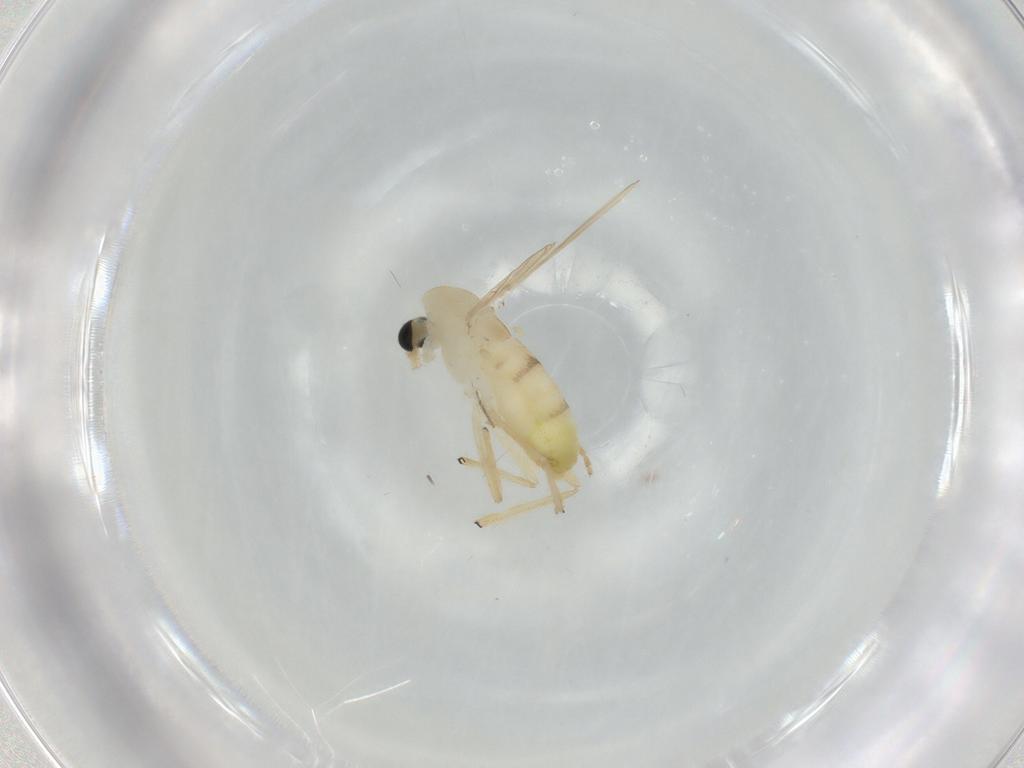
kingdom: Animalia
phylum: Arthropoda
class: Insecta
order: Diptera
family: Chironomidae
